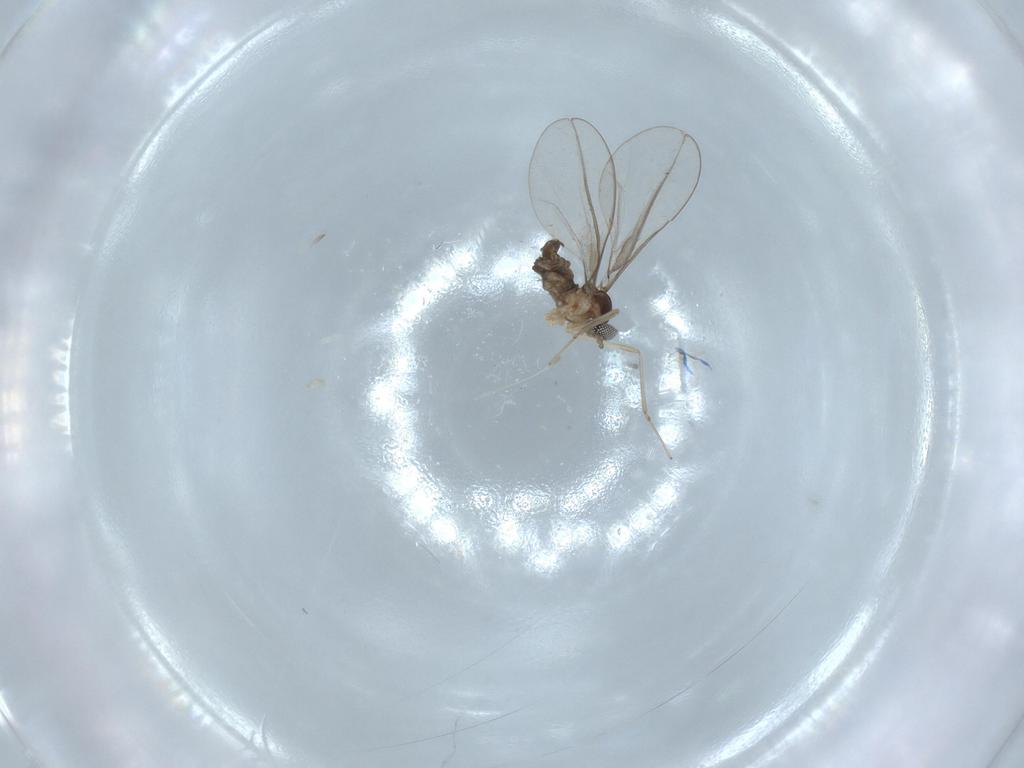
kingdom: Animalia
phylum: Arthropoda
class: Insecta
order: Diptera
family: Cecidomyiidae
